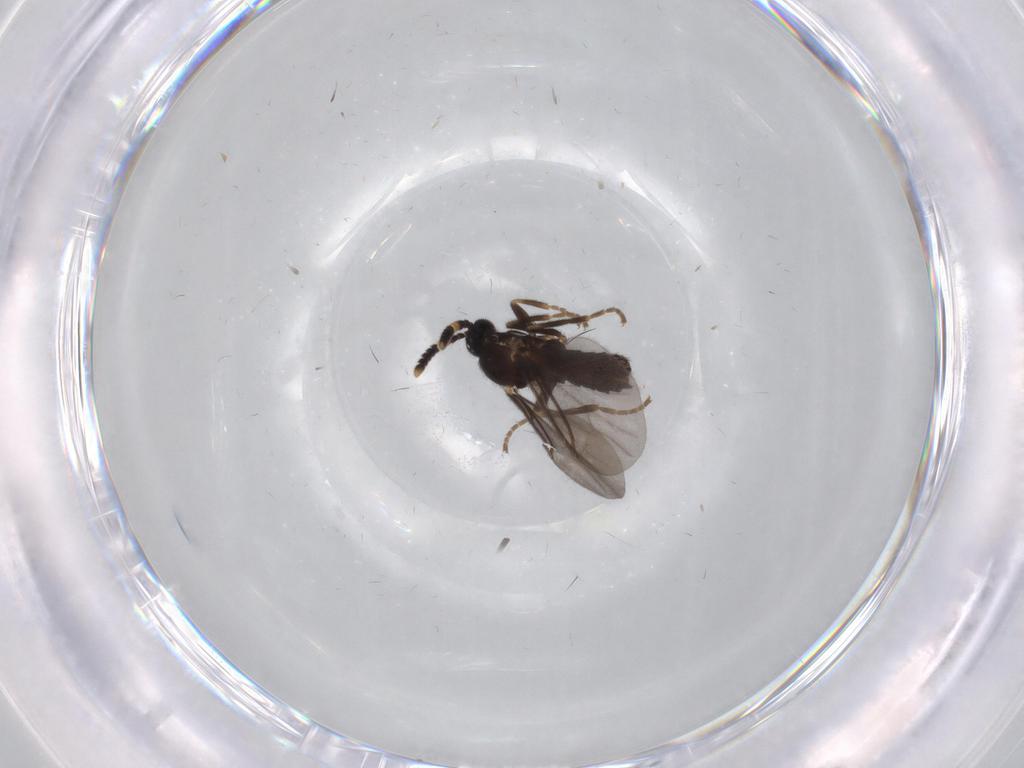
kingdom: Animalia
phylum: Arthropoda
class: Insecta
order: Diptera
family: Scatopsidae
